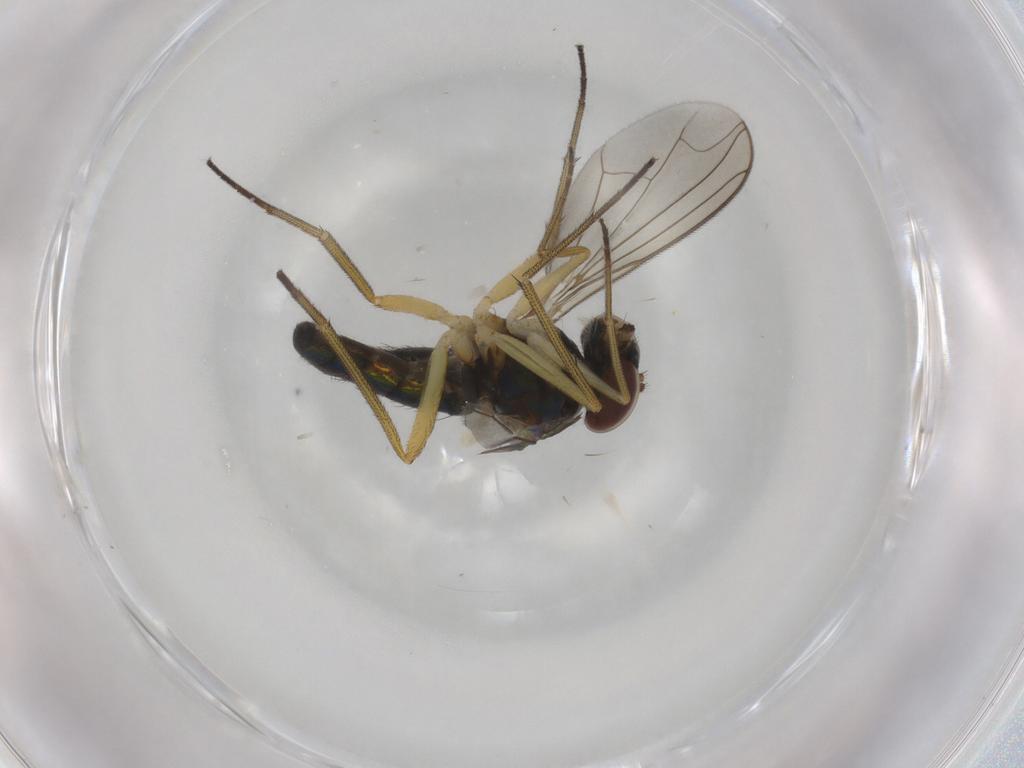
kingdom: Animalia
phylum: Arthropoda
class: Insecta
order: Diptera
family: Dolichopodidae
